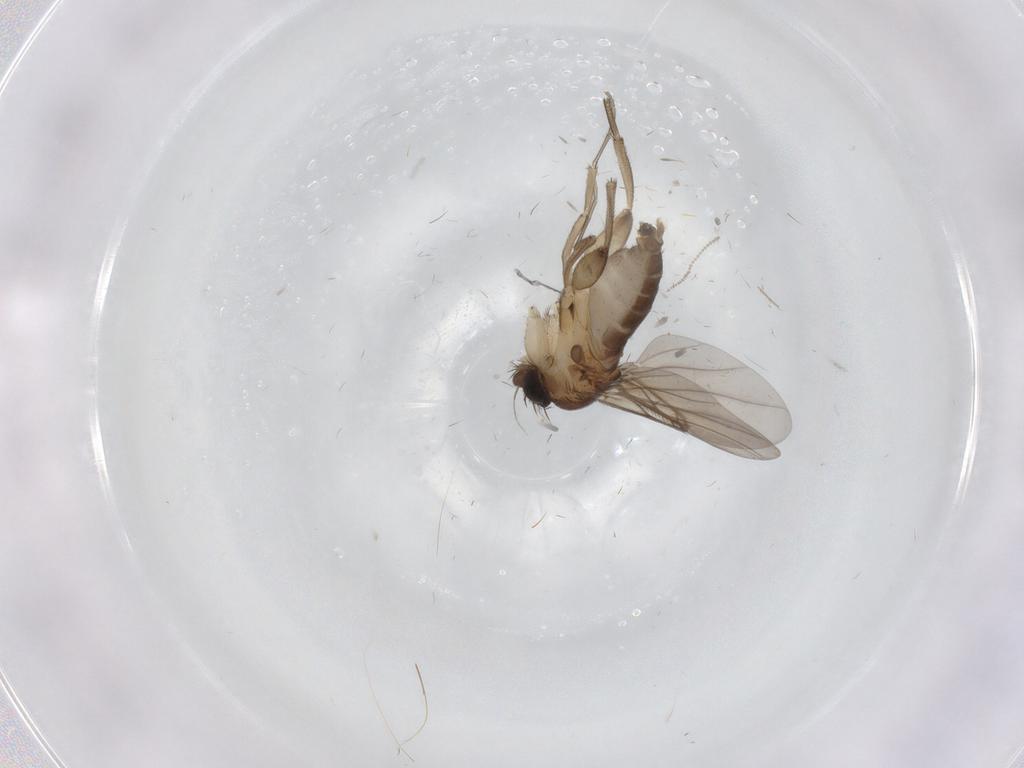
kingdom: Animalia
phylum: Arthropoda
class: Insecta
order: Diptera
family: Phoridae
